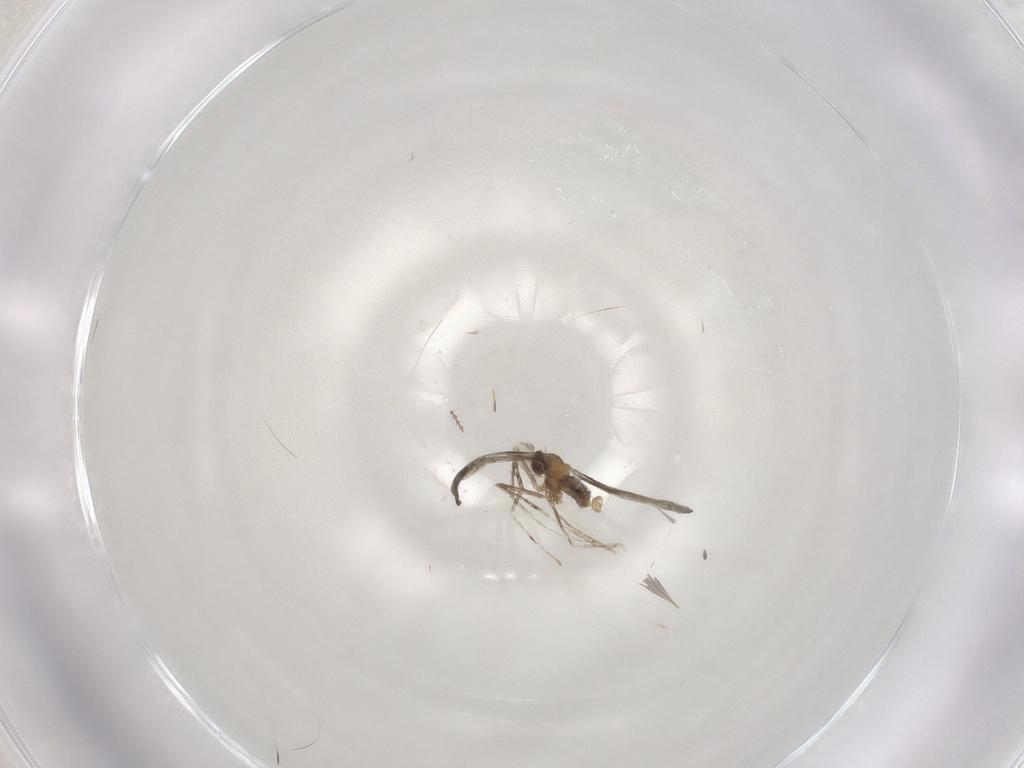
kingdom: Animalia
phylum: Arthropoda
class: Insecta
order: Diptera
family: Cecidomyiidae
